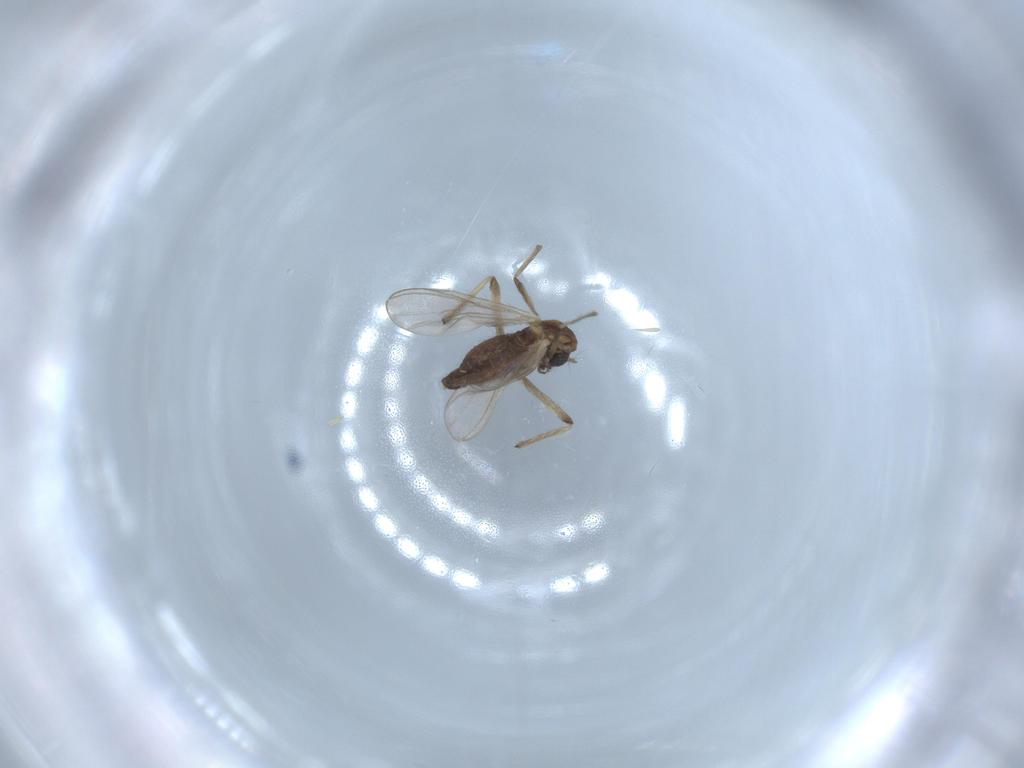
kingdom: Animalia
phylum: Arthropoda
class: Insecta
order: Diptera
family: Chironomidae
